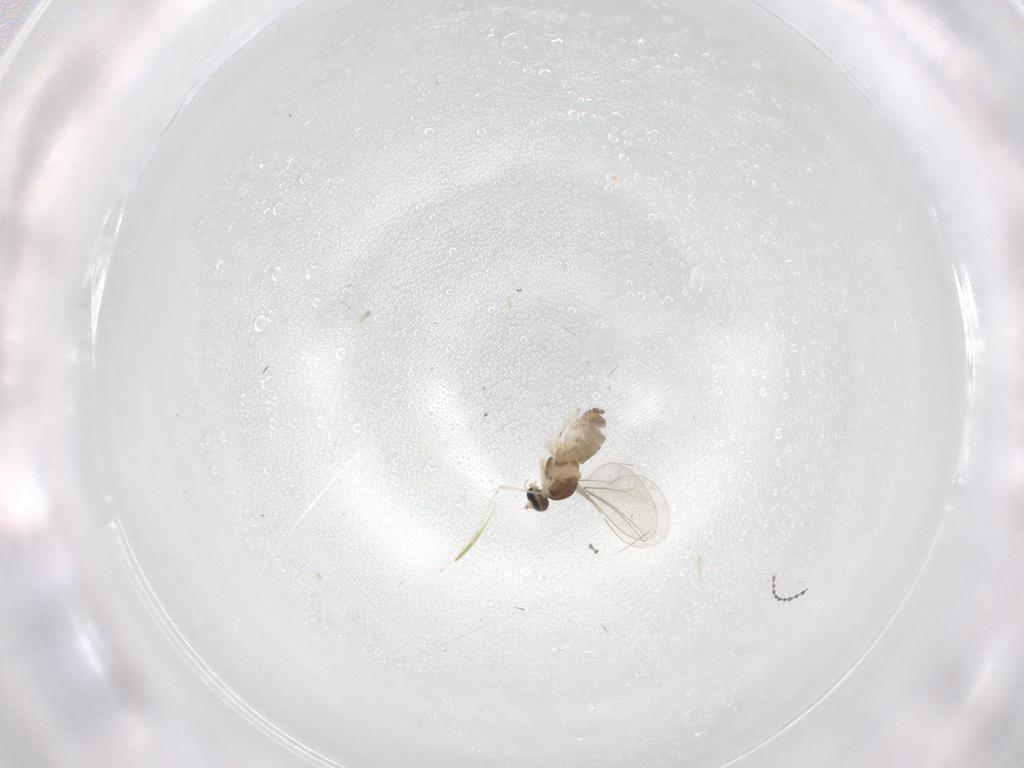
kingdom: Animalia
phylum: Arthropoda
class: Insecta
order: Diptera
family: Cecidomyiidae
